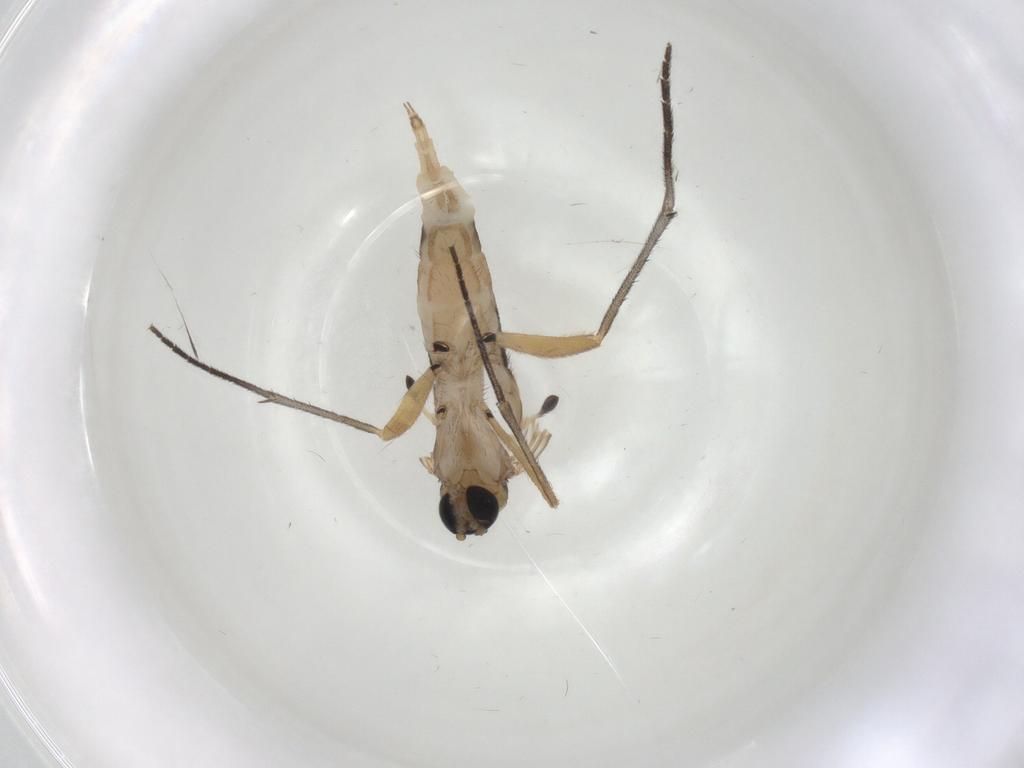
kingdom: Animalia
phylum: Arthropoda
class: Insecta
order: Diptera
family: Sciaridae
